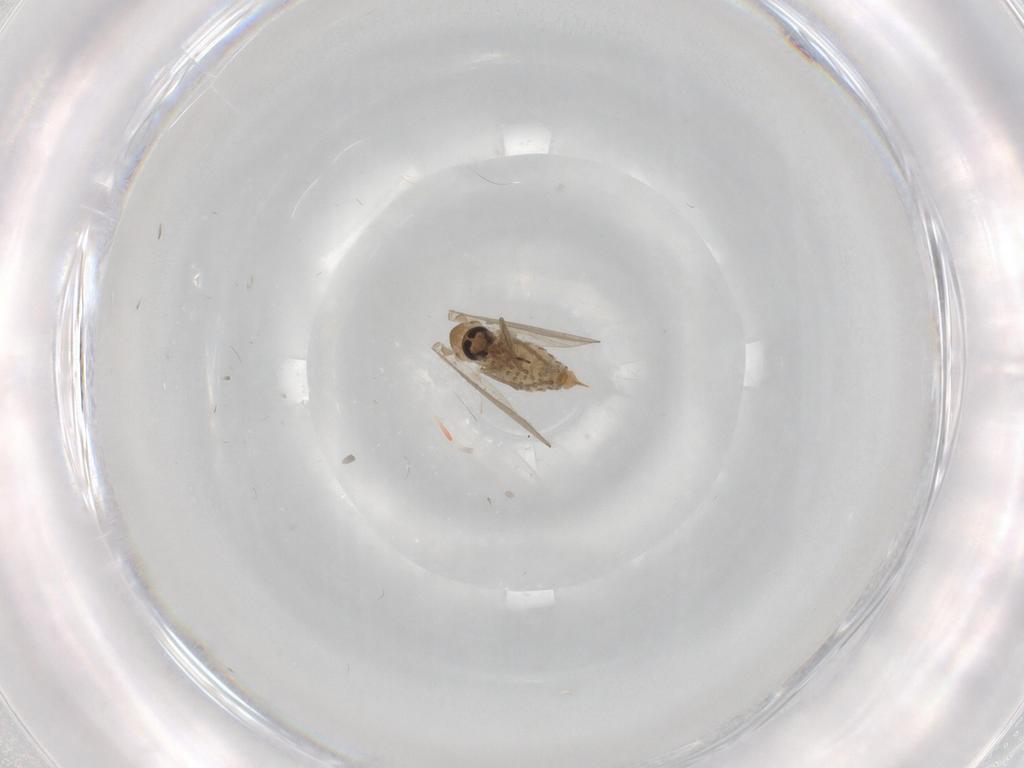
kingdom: Animalia
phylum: Arthropoda
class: Insecta
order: Diptera
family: Psychodidae
